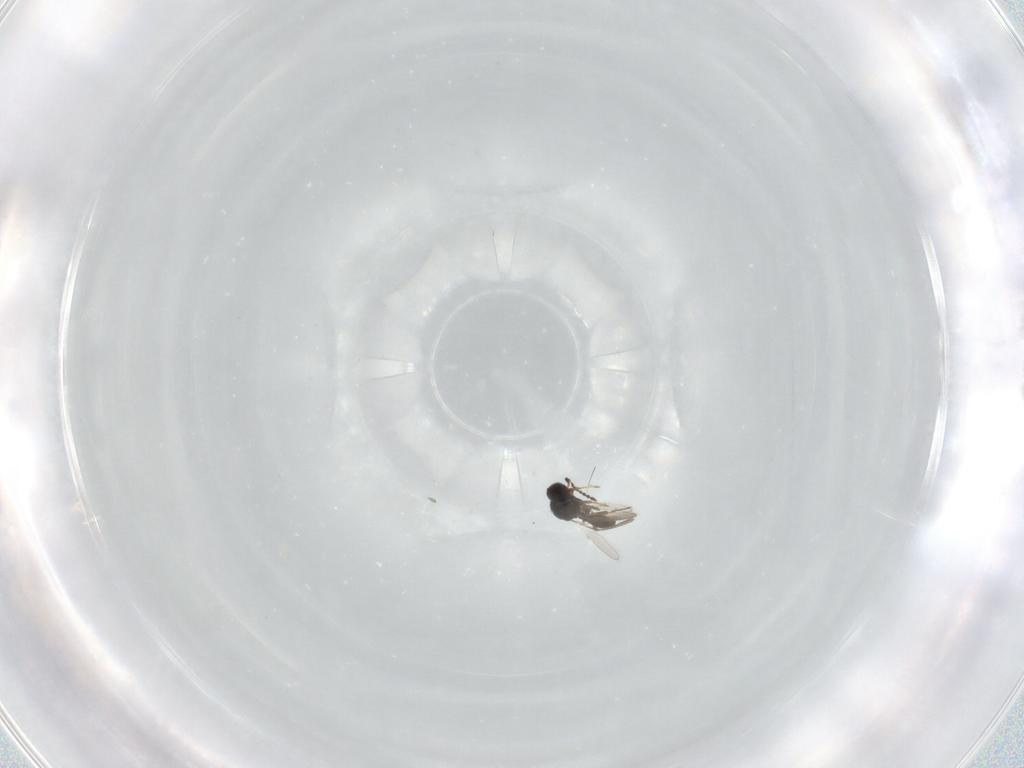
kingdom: Animalia
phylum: Arthropoda
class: Insecta
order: Hymenoptera
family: Platygastridae
